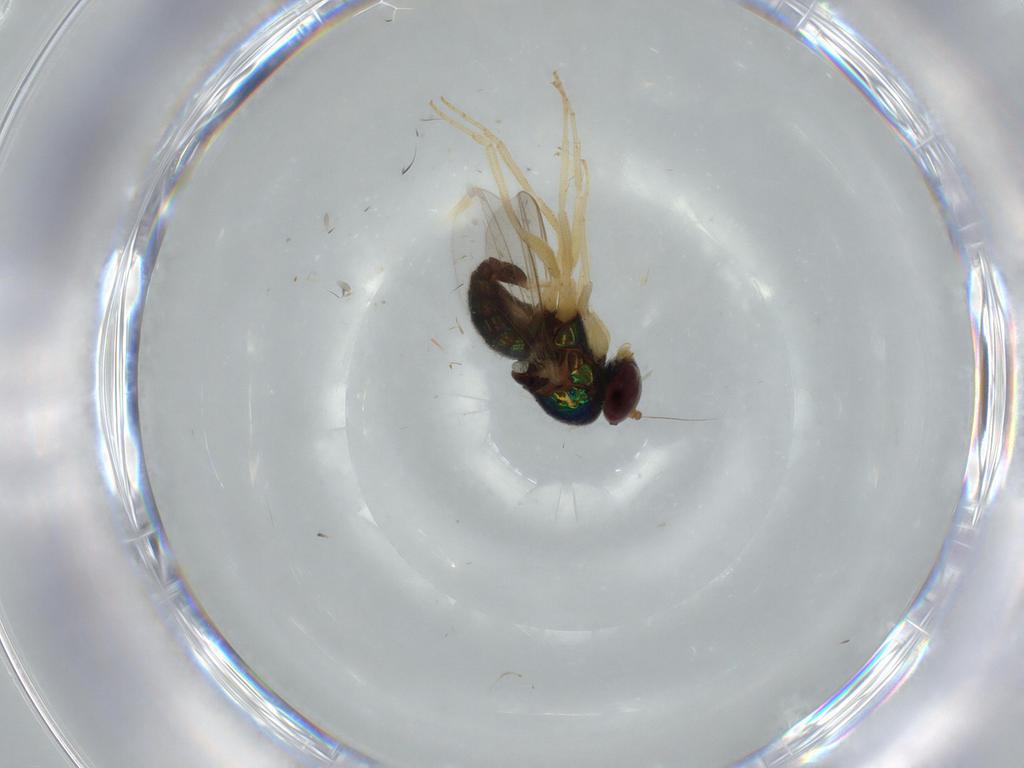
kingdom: Animalia
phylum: Arthropoda
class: Insecta
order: Diptera
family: Dolichopodidae
